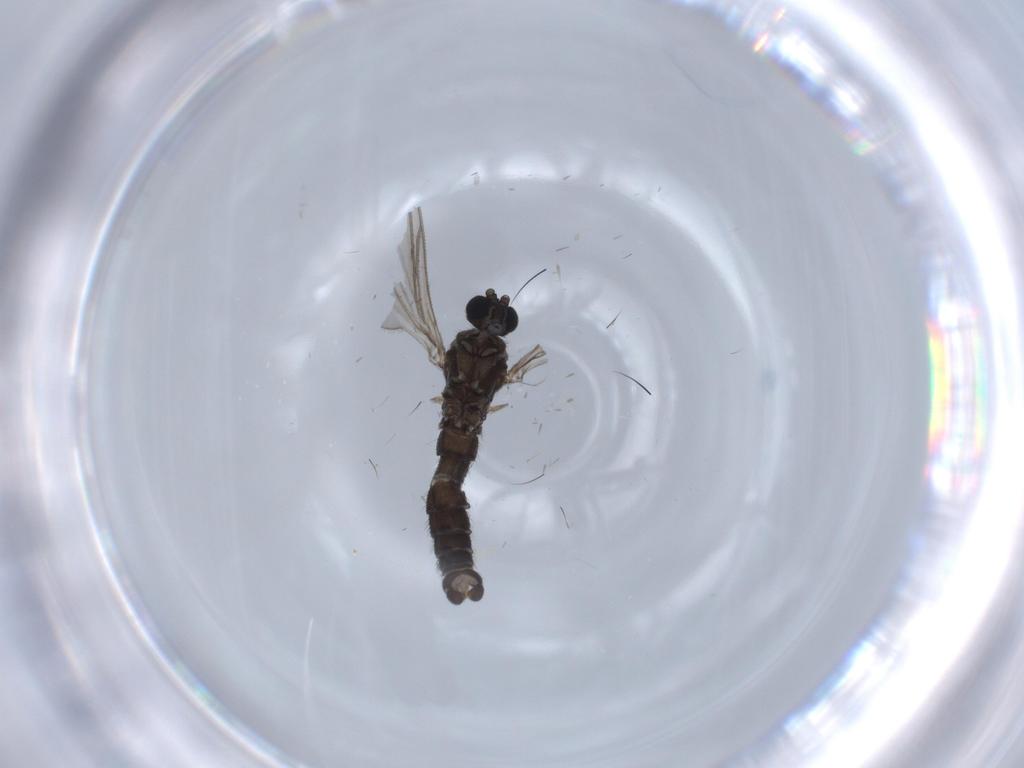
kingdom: Animalia
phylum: Arthropoda
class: Insecta
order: Diptera
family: Sciaridae
